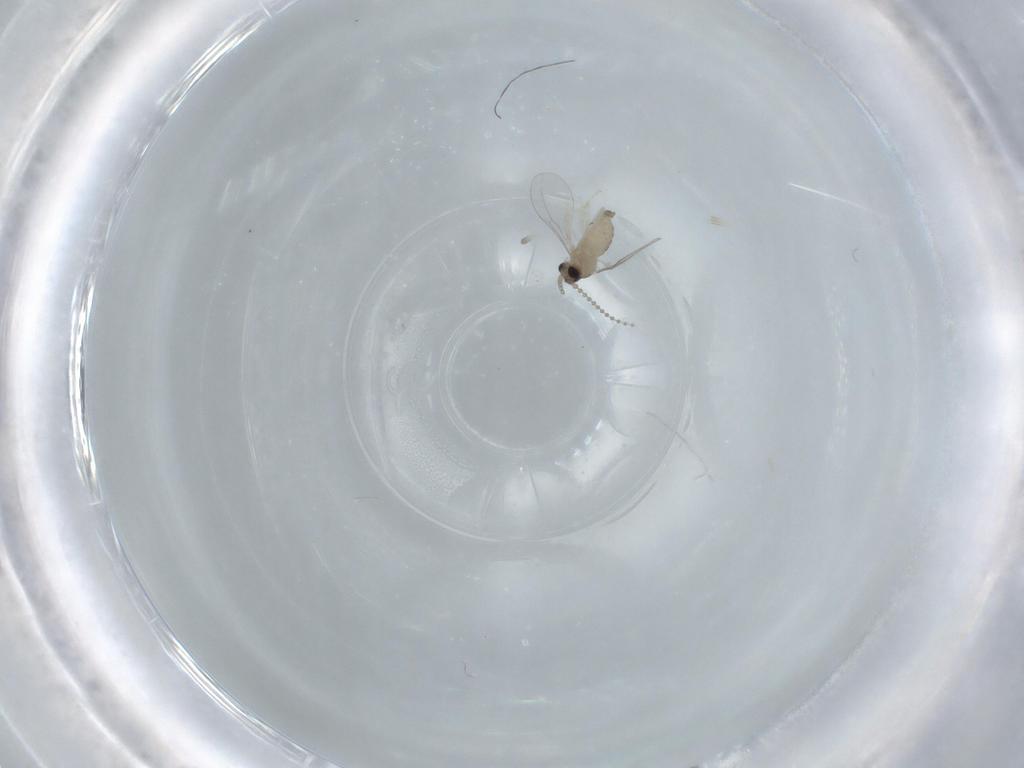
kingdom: Animalia
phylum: Arthropoda
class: Insecta
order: Diptera
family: Cecidomyiidae
